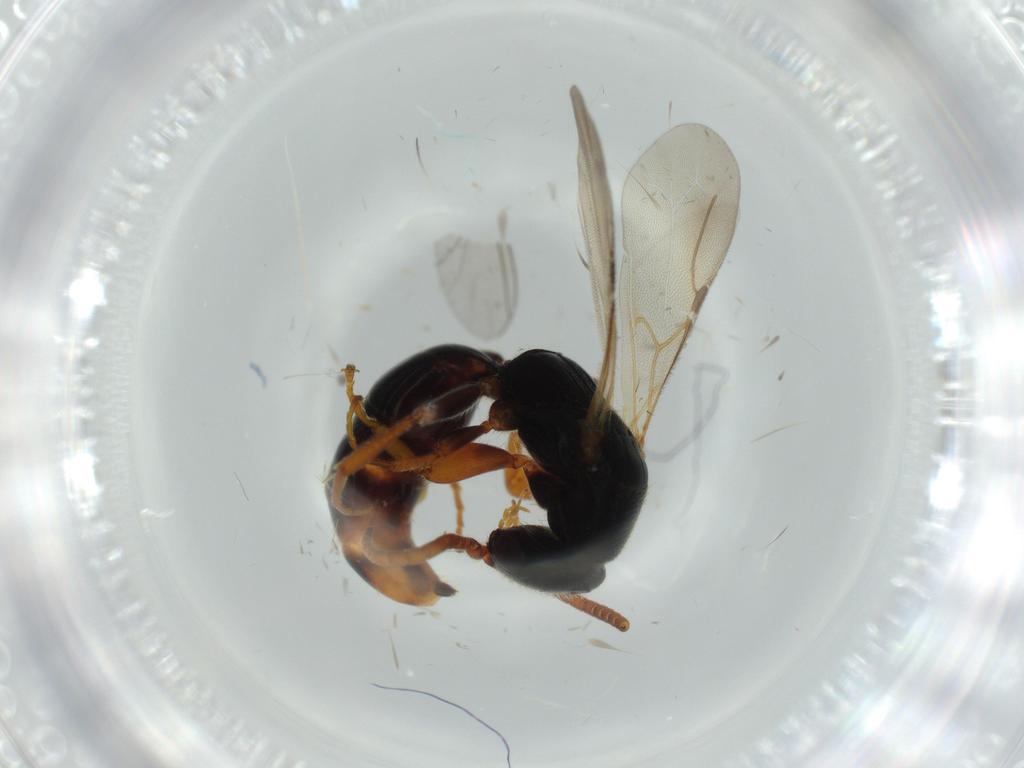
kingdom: Animalia
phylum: Arthropoda
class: Insecta
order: Hymenoptera
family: Bethylidae
